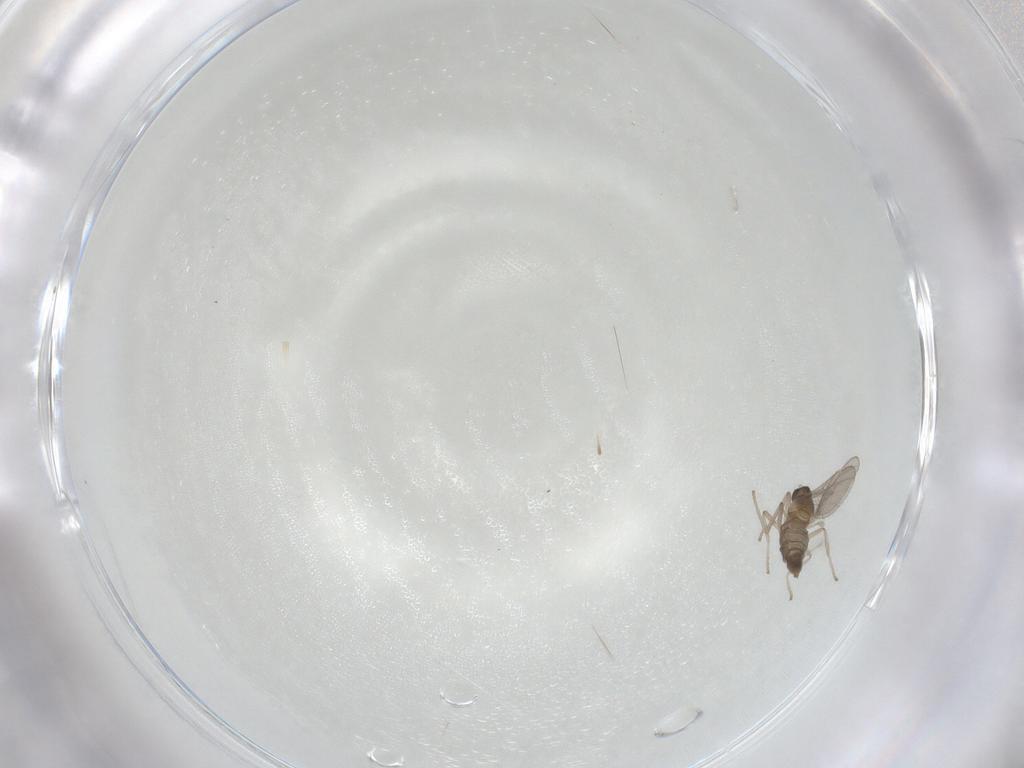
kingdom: Animalia
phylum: Arthropoda
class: Insecta
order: Diptera
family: Cecidomyiidae
